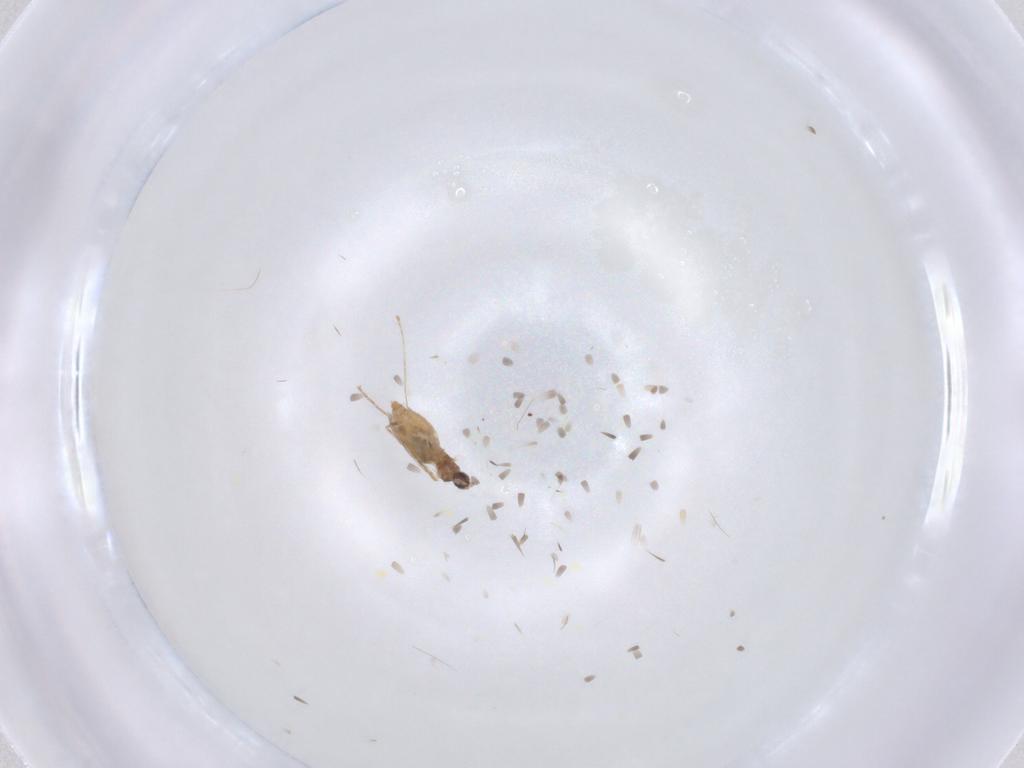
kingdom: Animalia
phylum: Arthropoda
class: Insecta
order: Diptera
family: Cecidomyiidae
